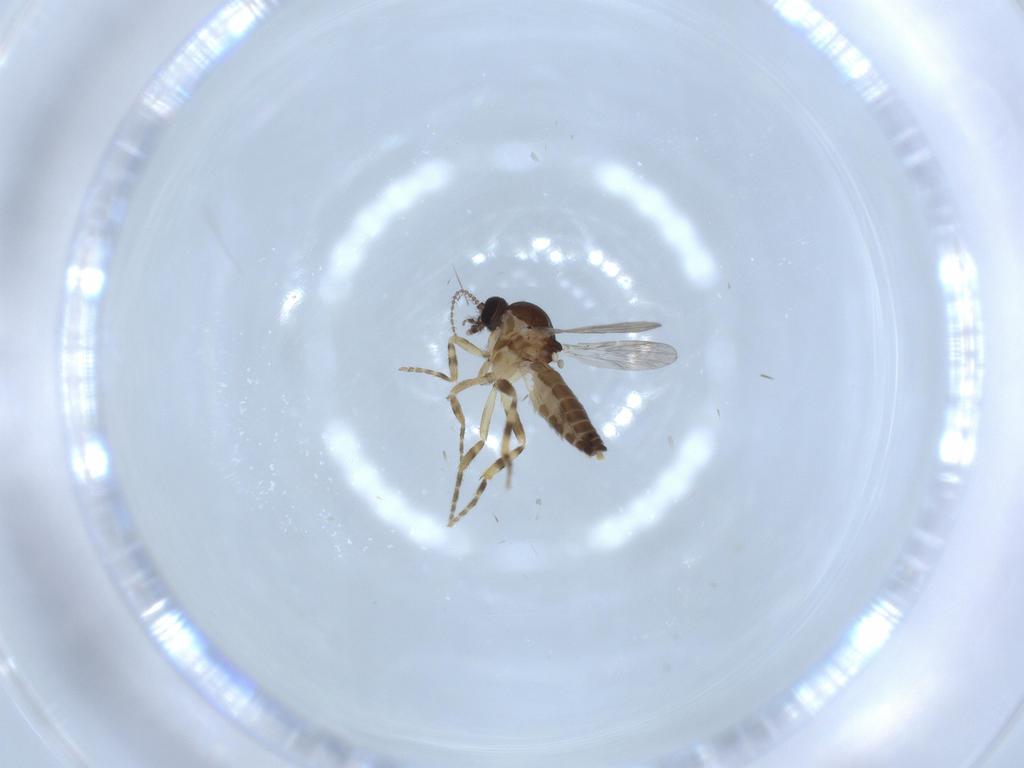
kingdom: Animalia
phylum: Arthropoda
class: Insecta
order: Diptera
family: Ceratopogonidae
